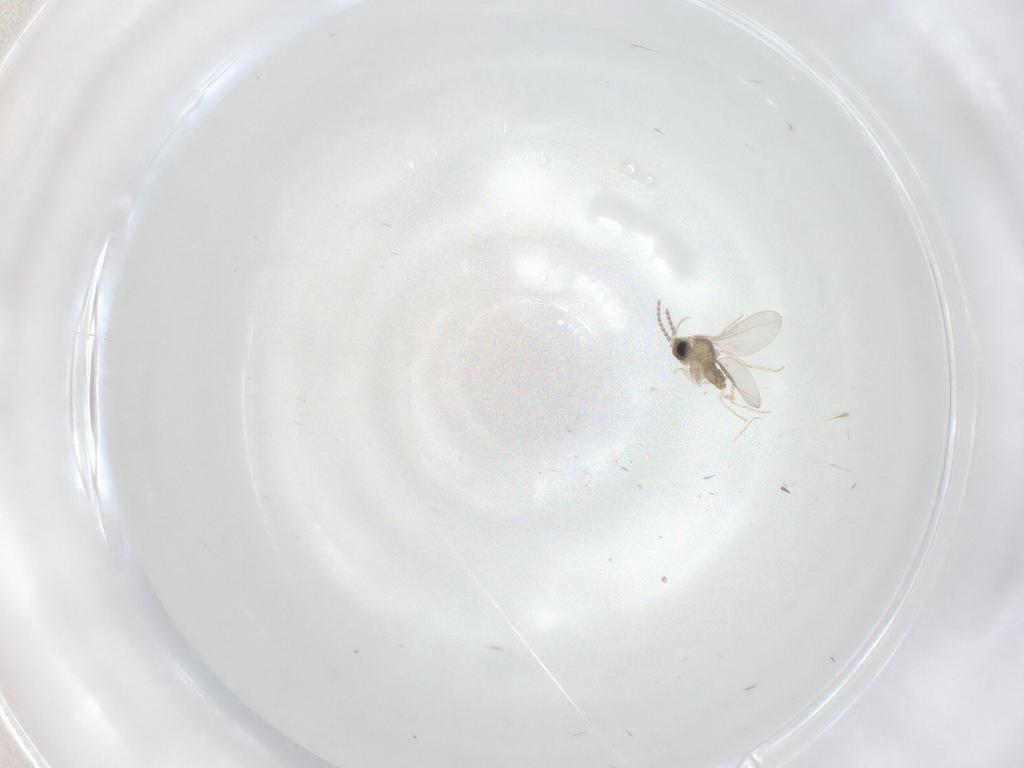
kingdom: Animalia
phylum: Arthropoda
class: Insecta
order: Diptera
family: Cecidomyiidae
